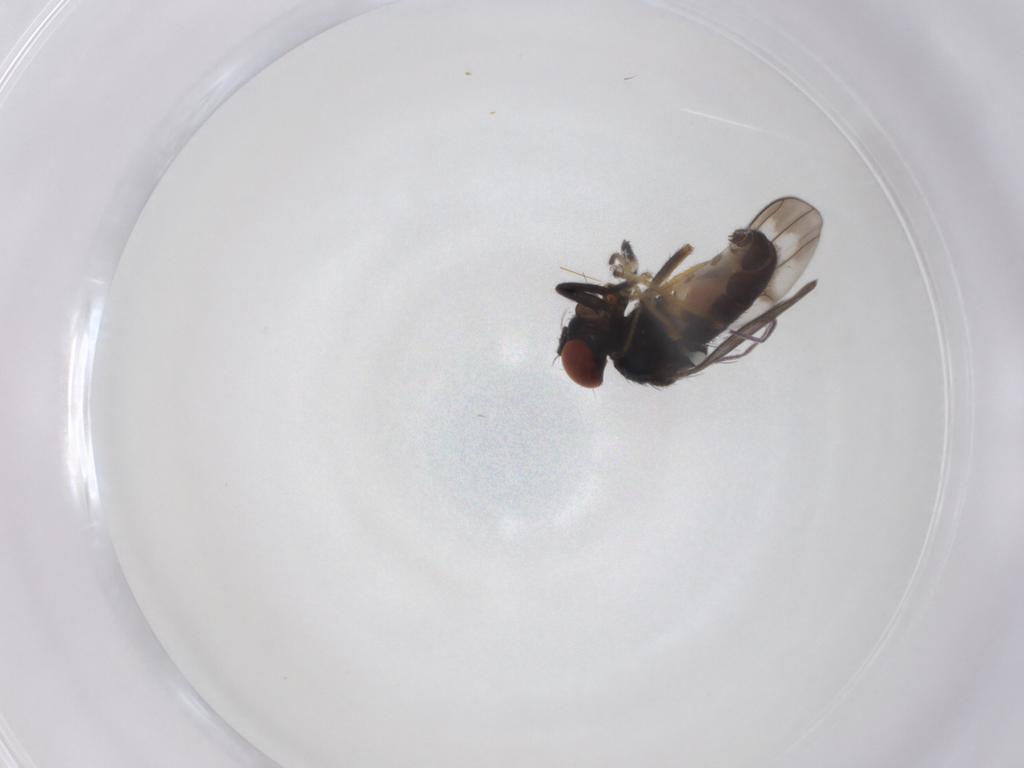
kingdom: Animalia
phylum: Arthropoda
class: Insecta
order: Diptera
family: Ephydridae
